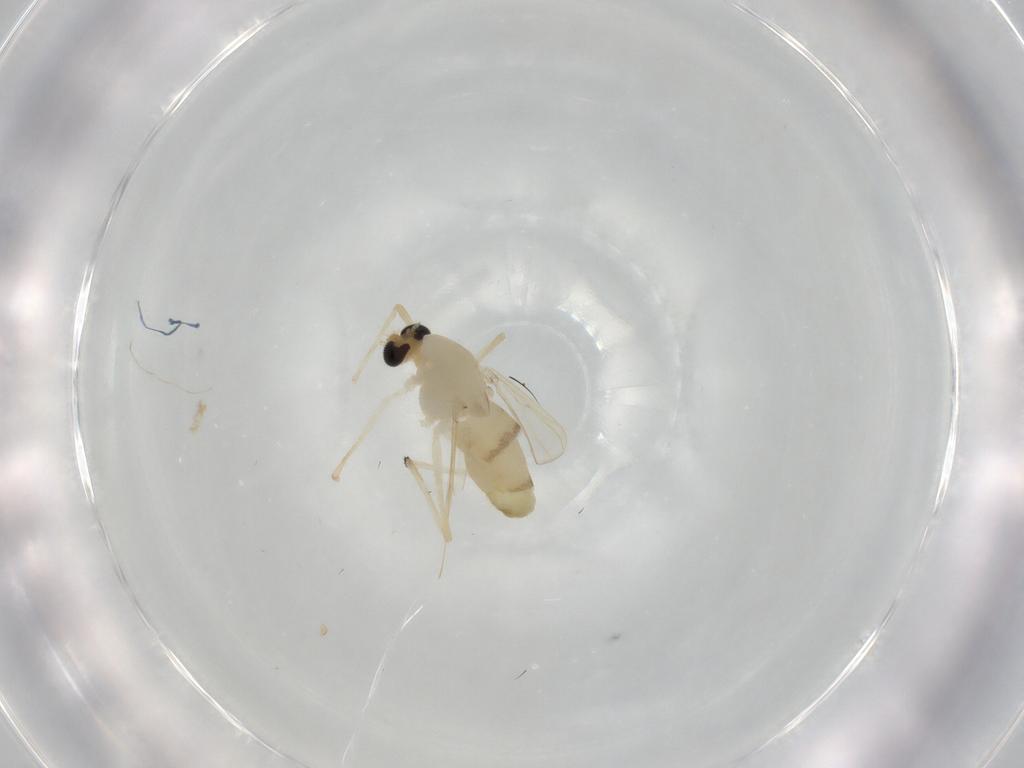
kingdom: Animalia
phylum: Arthropoda
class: Insecta
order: Diptera
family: Chironomidae
